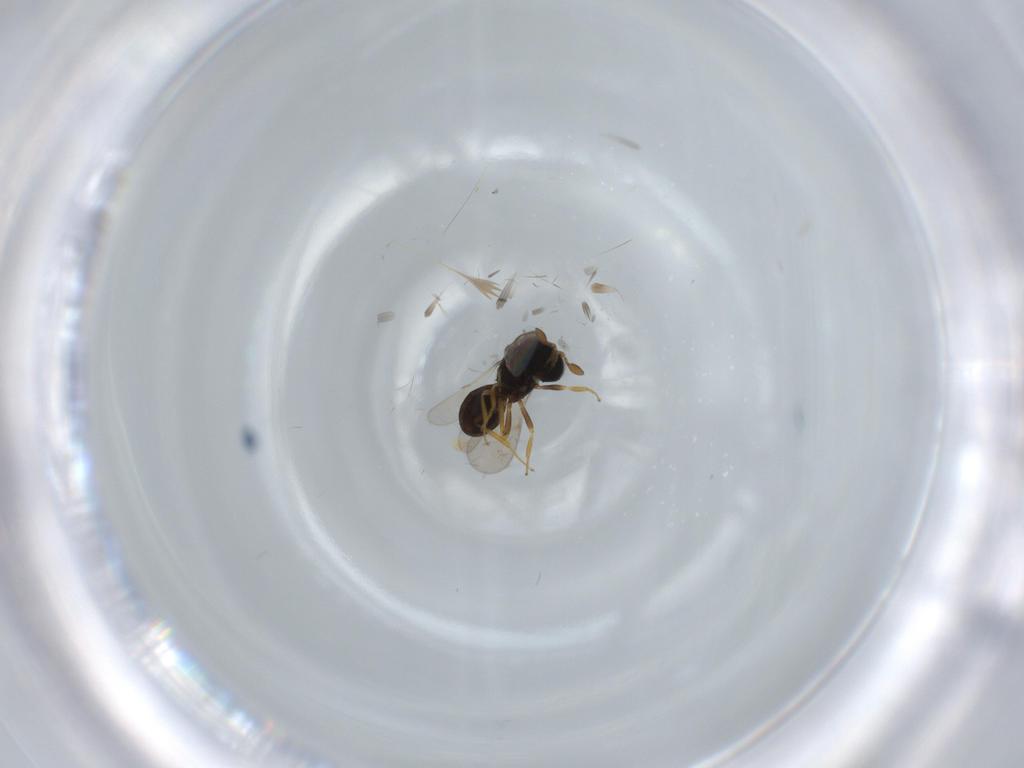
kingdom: Animalia
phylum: Arthropoda
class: Insecta
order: Hymenoptera
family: Scelionidae
